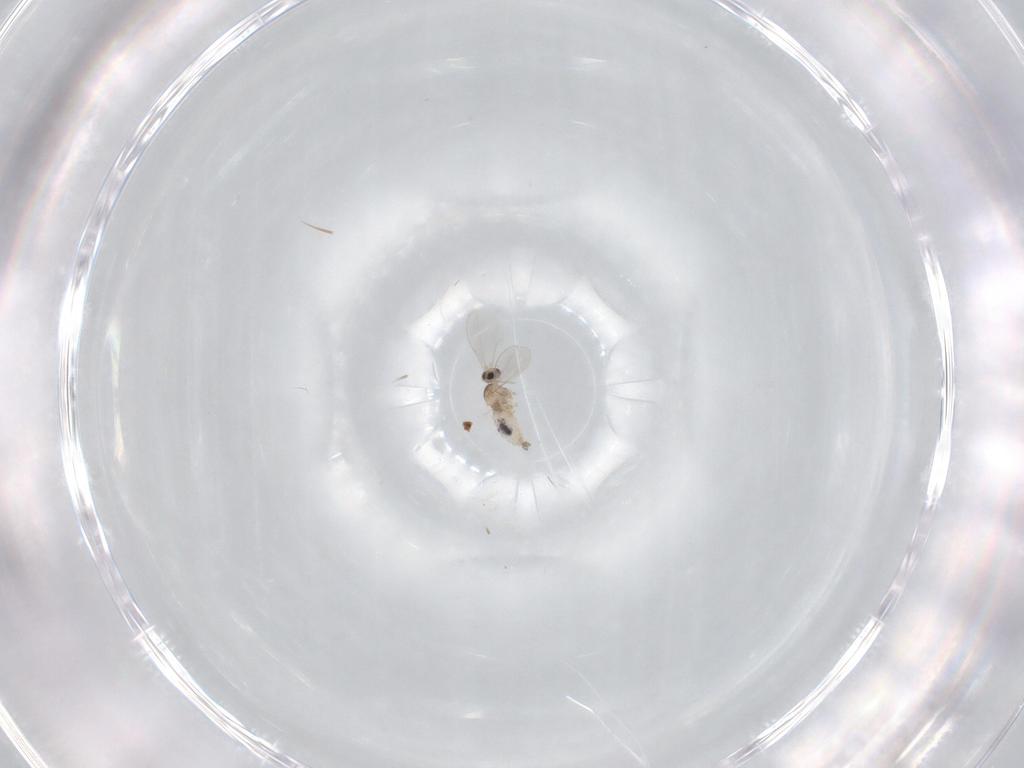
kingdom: Animalia
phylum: Arthropoda
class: Insecta
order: Diptera
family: Cecidomyiidae
